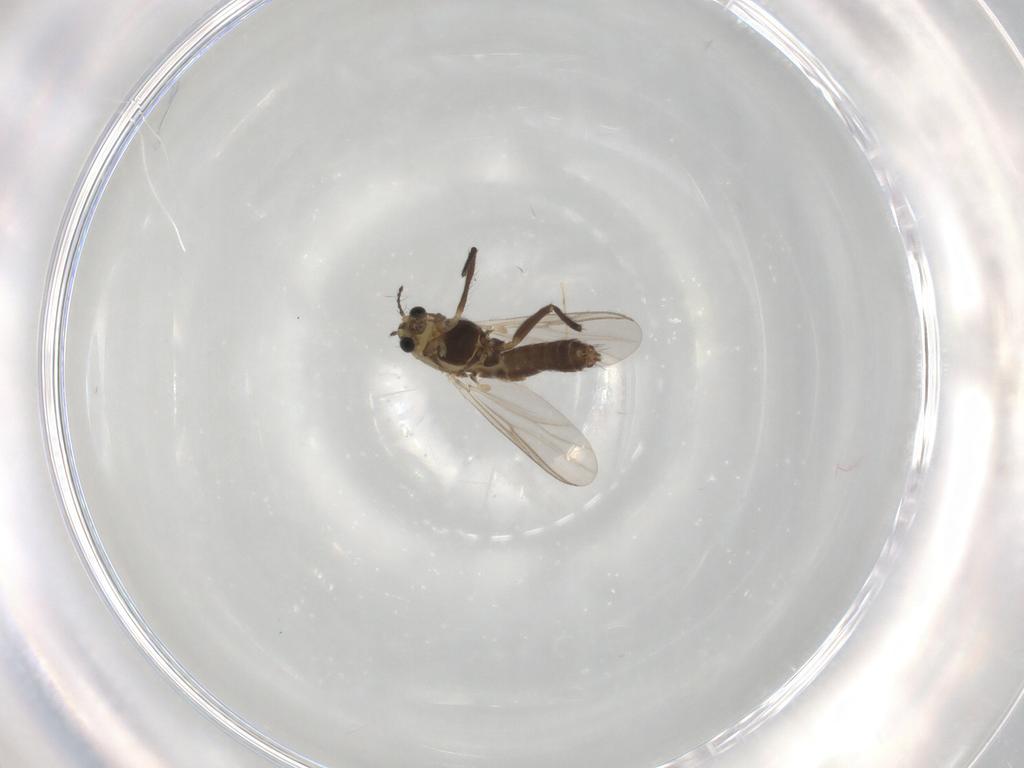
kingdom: Animalia
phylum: Arthropoda
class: Insecta
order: Diptera
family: Chironomidae
